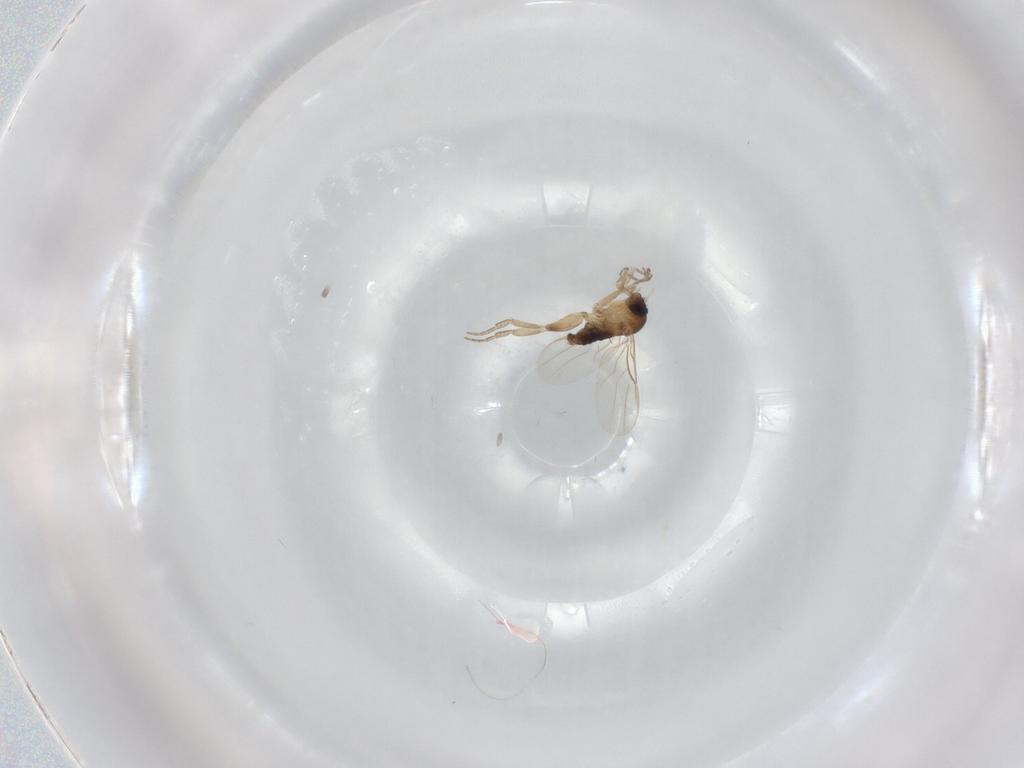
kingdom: Animalia
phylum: Arthropoda
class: Insecta
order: Diptera
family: Phoridae
